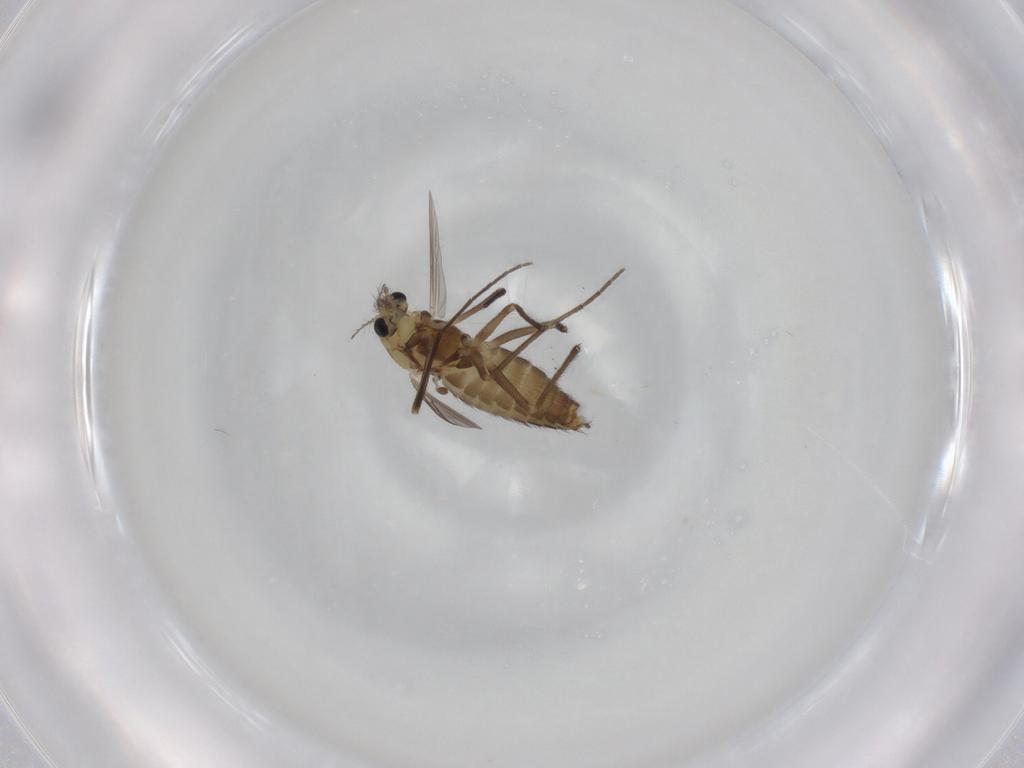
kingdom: Animalia
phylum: Arthropoda
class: Insecta
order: Diptera
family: Chironomidae
